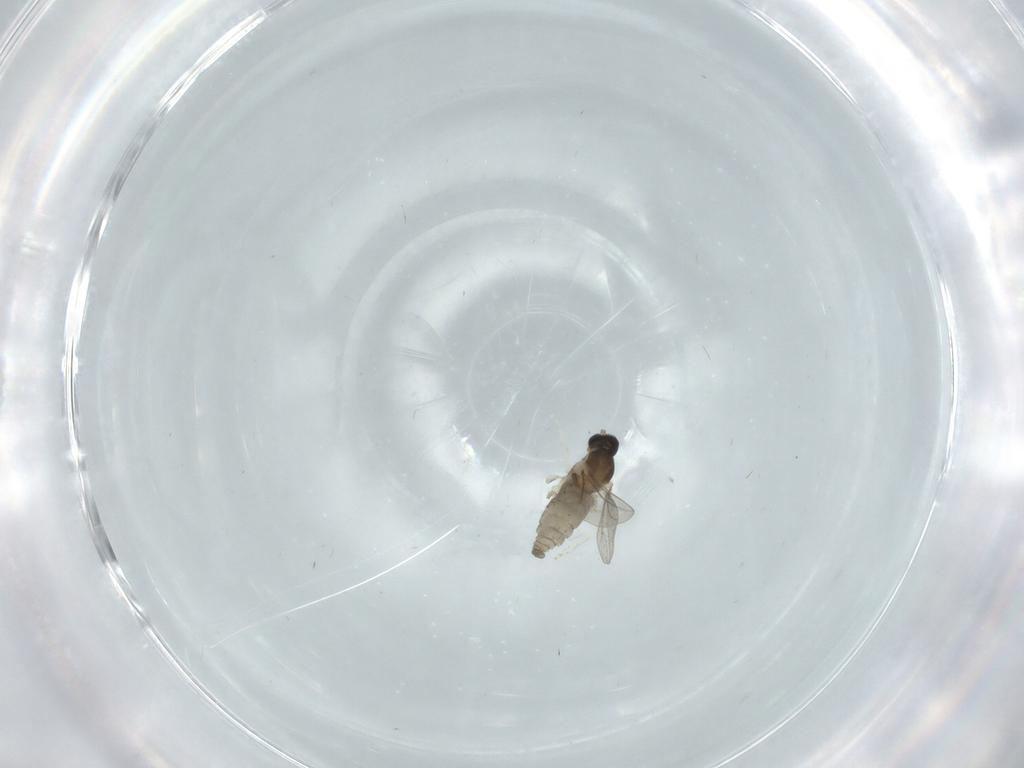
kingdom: Animalia
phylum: Arthropoda
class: Insecta
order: Diptera
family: Cecidomyiidae
